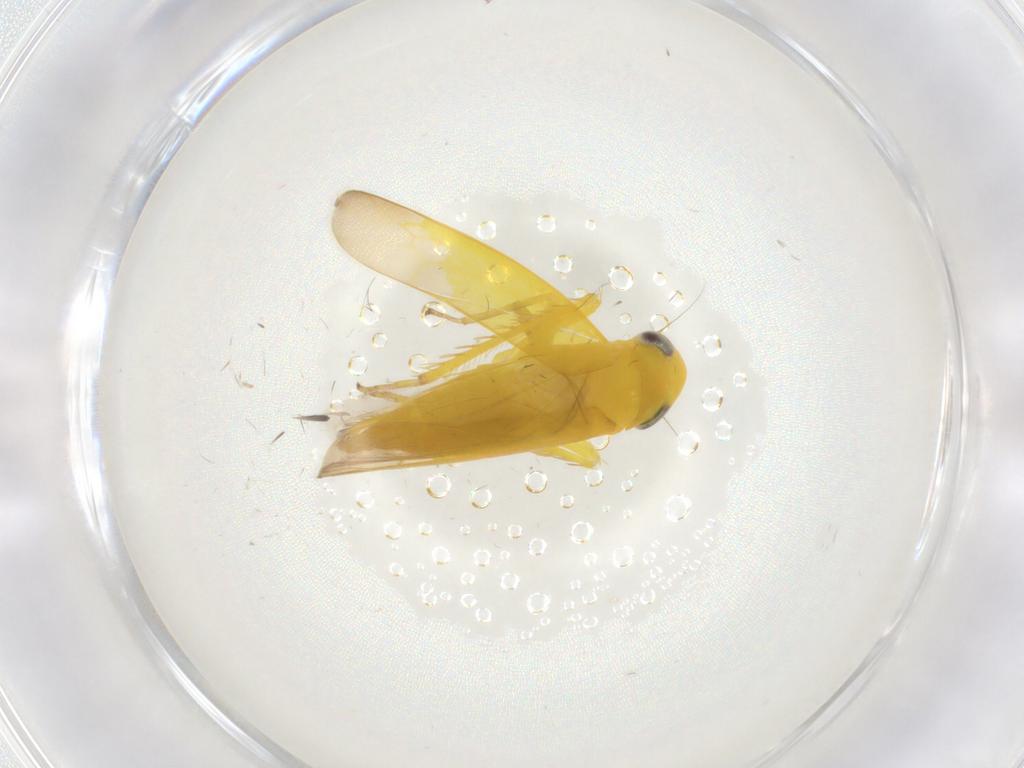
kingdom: Animalia
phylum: Arthropoda
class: Insecta
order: Hemiptera
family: Cicadellidae
